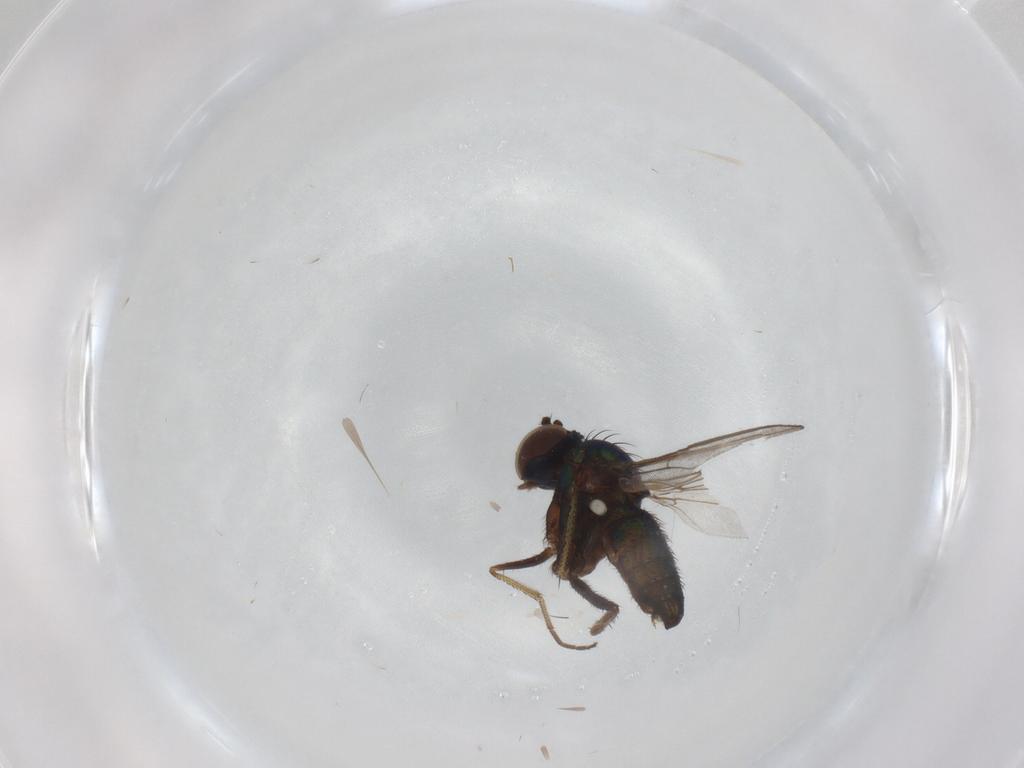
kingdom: Animalia
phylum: Arthropoda
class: Insecta
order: Diptera
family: Dolichopodidae
